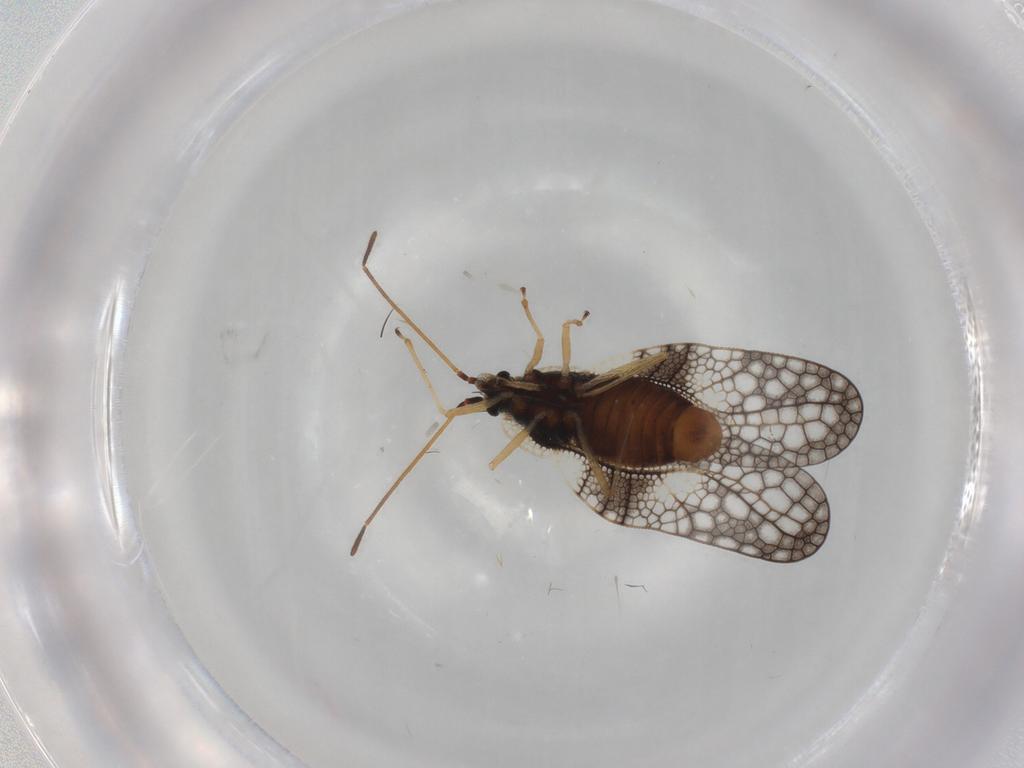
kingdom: Animalia
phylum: Arthropoda
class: Insecta
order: Hemiptera
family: Tingidae
